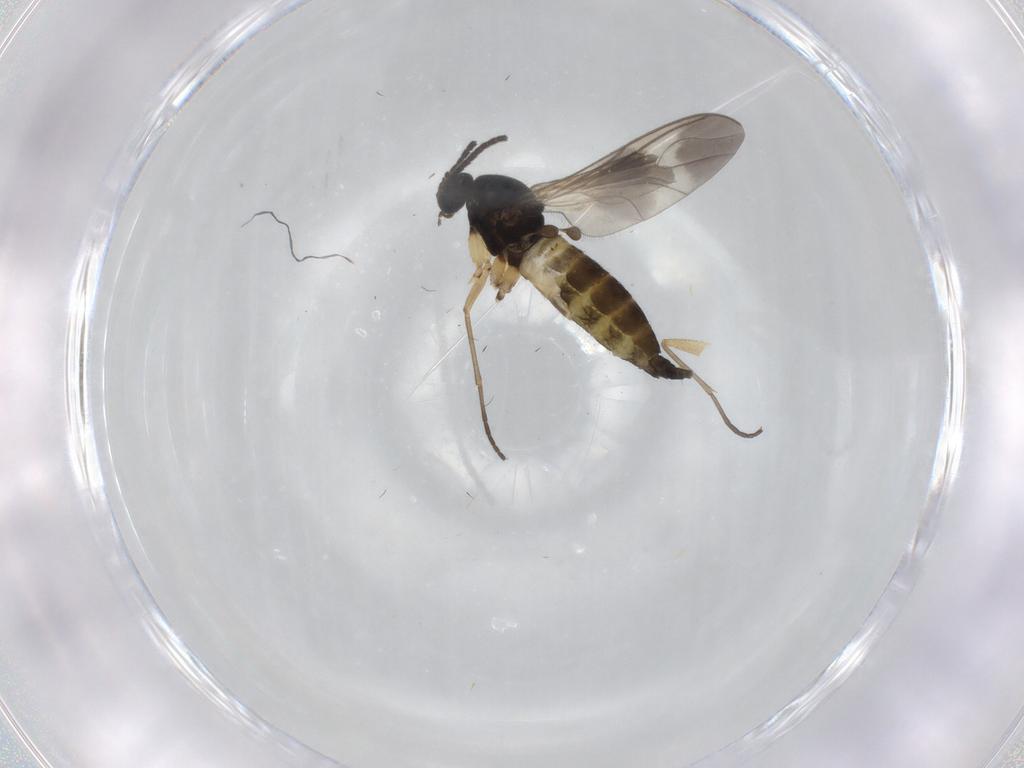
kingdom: Animalia
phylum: Arthropoda
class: Insecta
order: Diptera
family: Sciaridae
